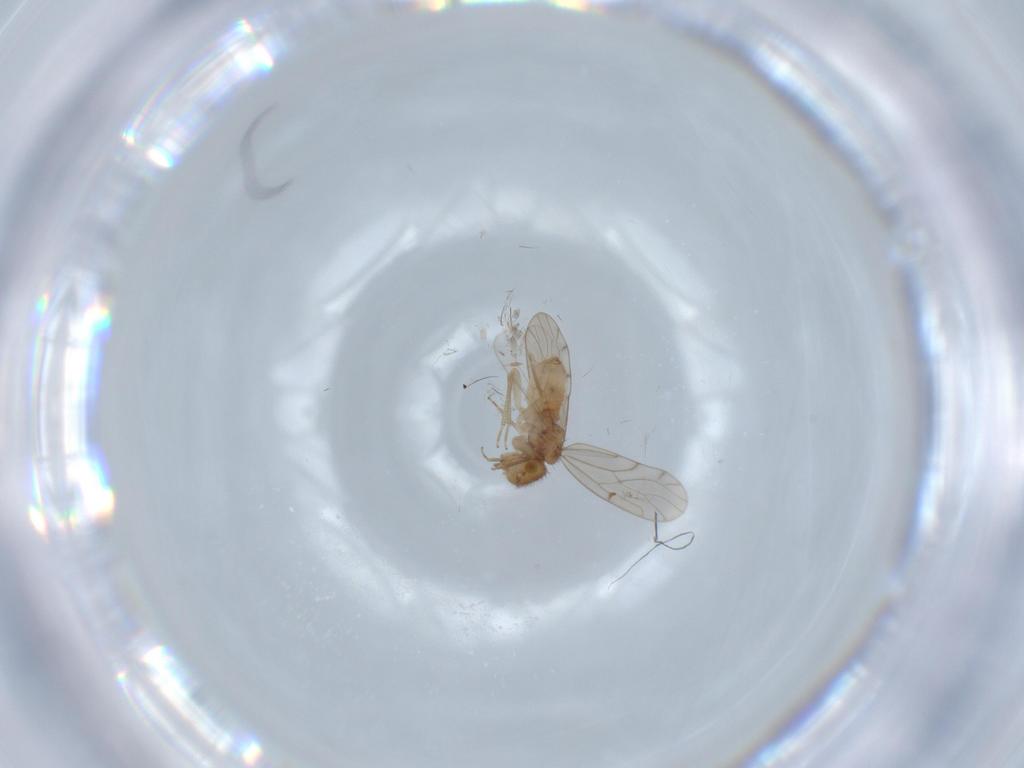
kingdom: Animalia
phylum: Arthropoda
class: Insecta
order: Psocodea
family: Ectopsocidae
